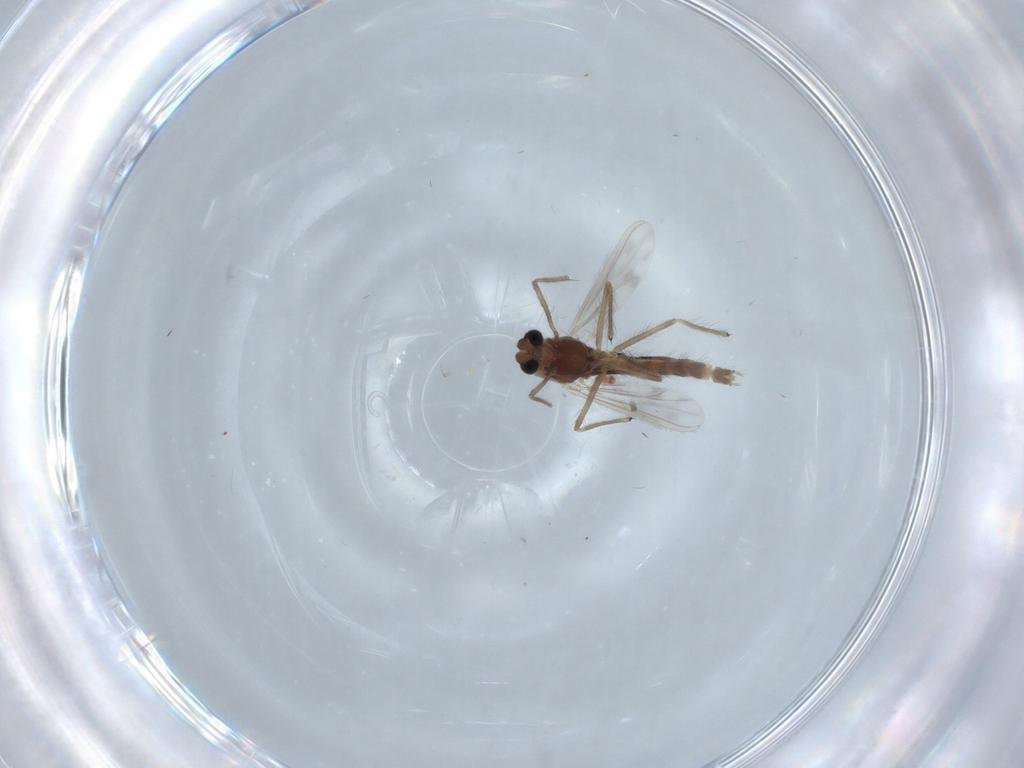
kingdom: Animalia
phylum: Arthropoda
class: Insecta
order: Diptera
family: Chironomidae
